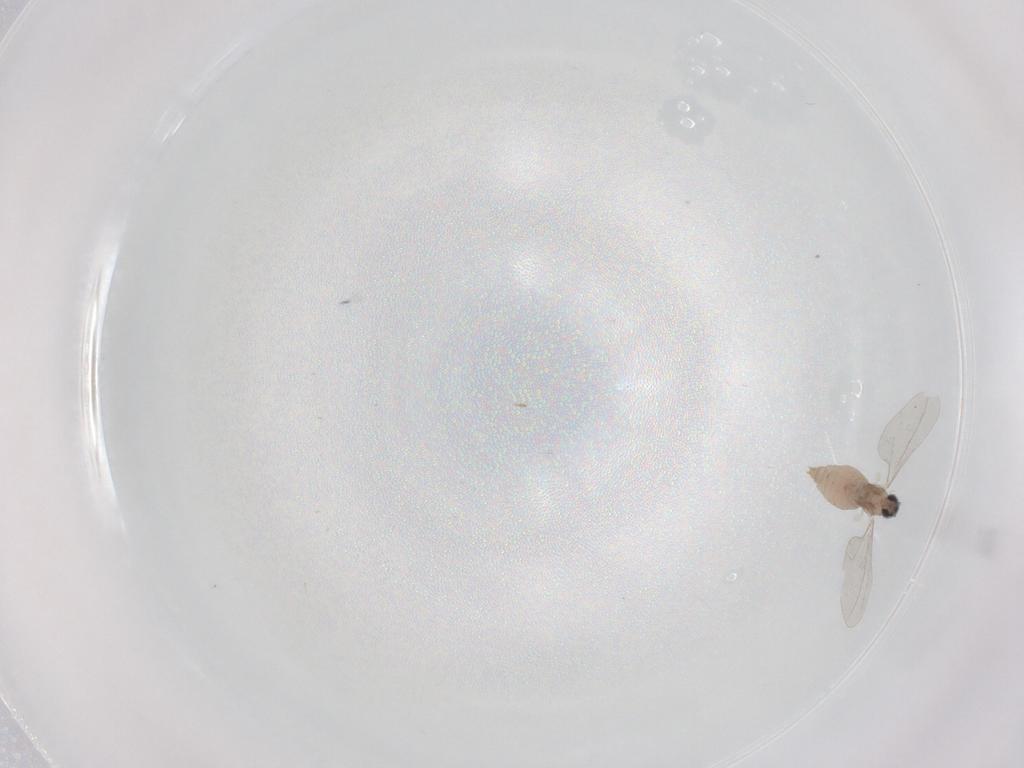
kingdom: Animalia
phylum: Arthropoda
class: Insecta
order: Diptera
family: Cecidomyiidae
